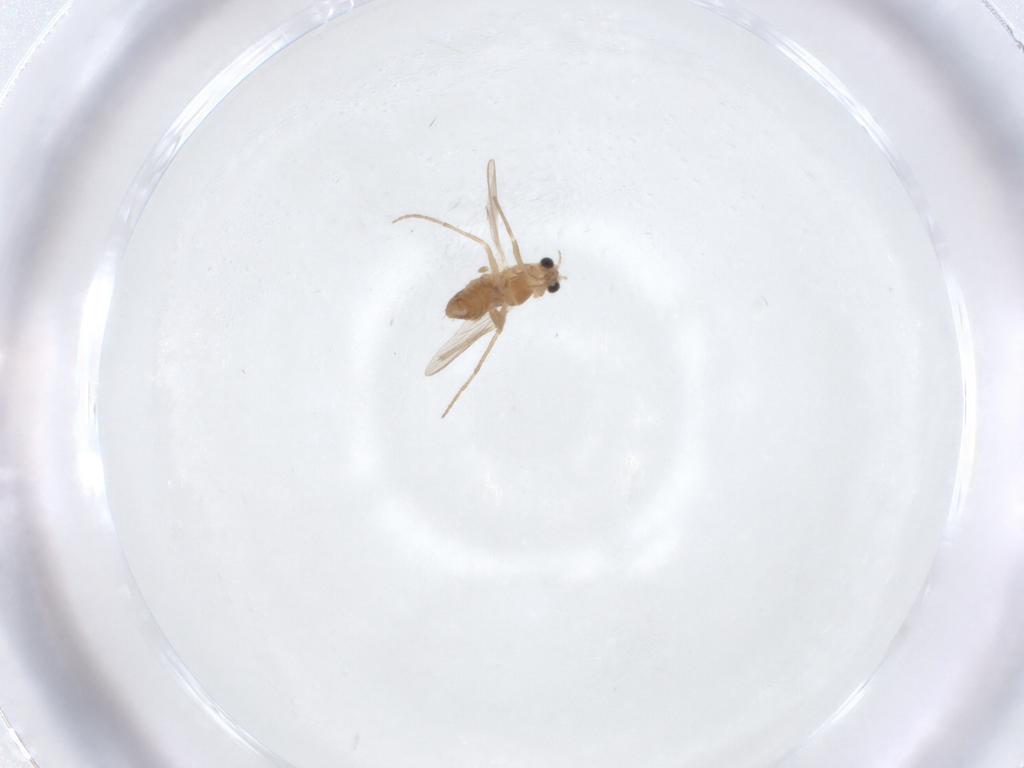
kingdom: Animalia
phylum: Arthropoda
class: Insecta
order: Diptera
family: Chironomidae
